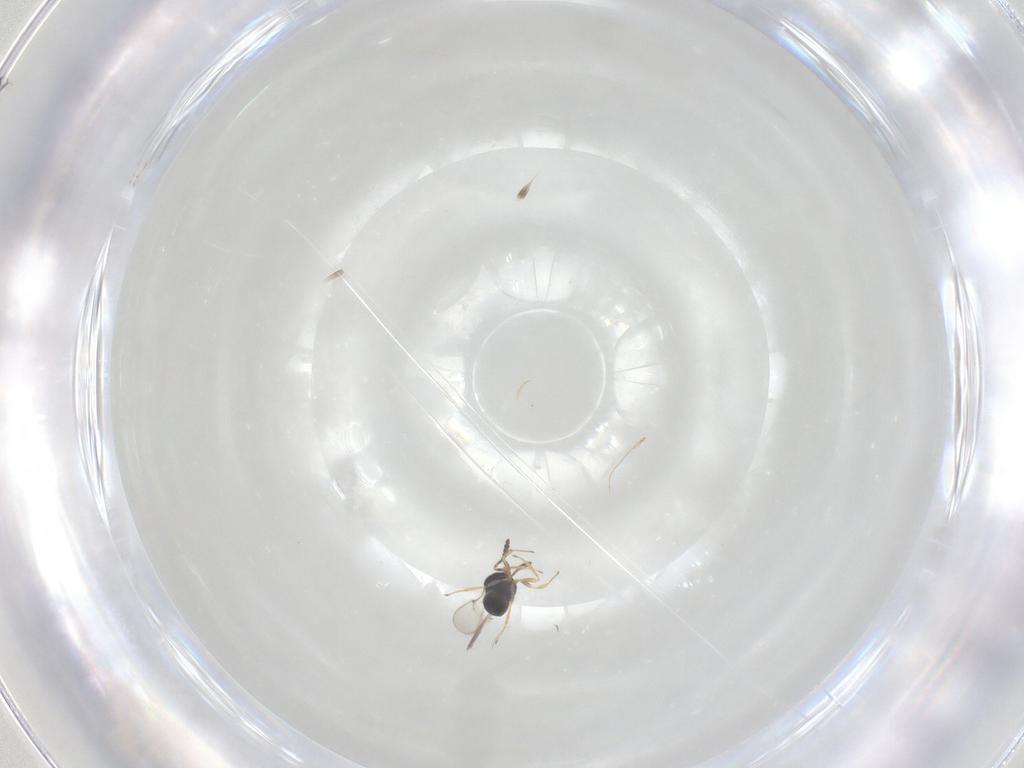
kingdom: Animalia
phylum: Arthropoda
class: Insecta
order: Hymenoptera
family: Scelionidae
